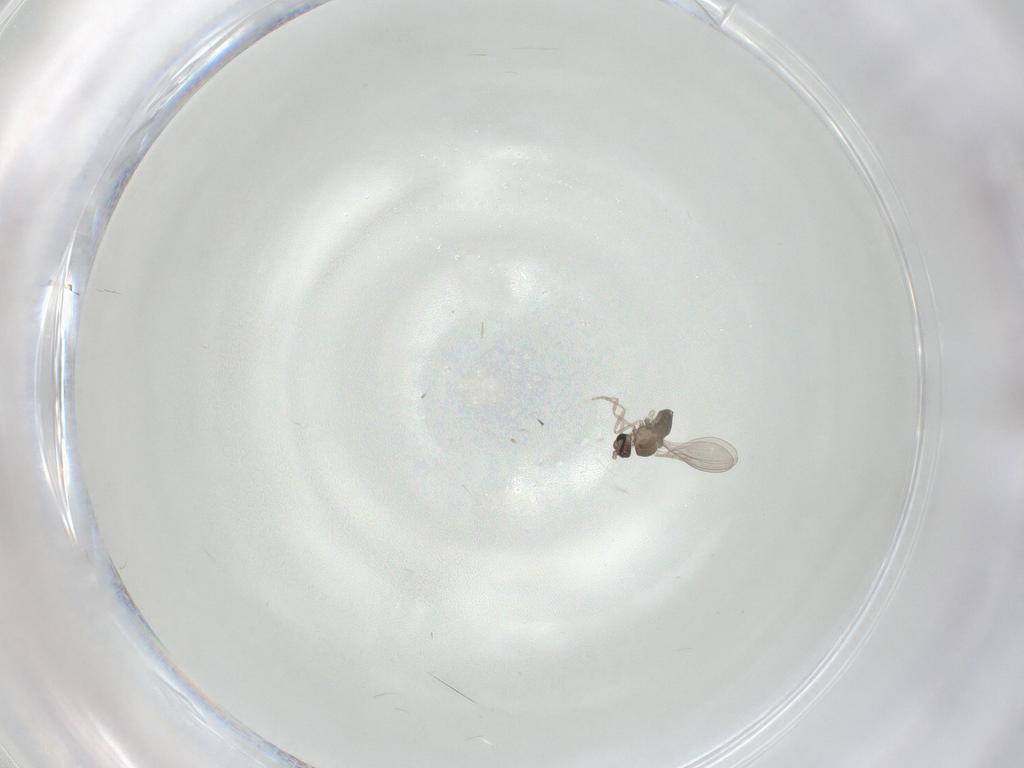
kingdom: Animalia
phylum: Arthropoda
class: Insecta
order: Diptera
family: Cecidomyiidae
